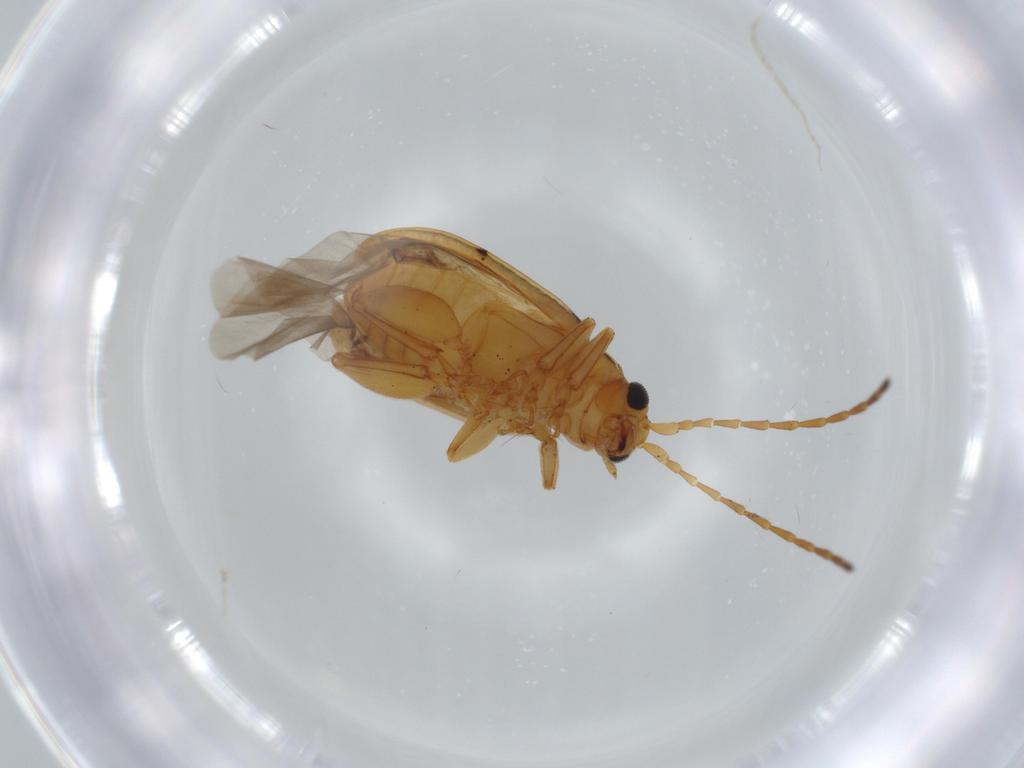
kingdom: Animalia
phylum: Arthropoda
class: Insecta
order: Coleoptera
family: Chrysomelidae
